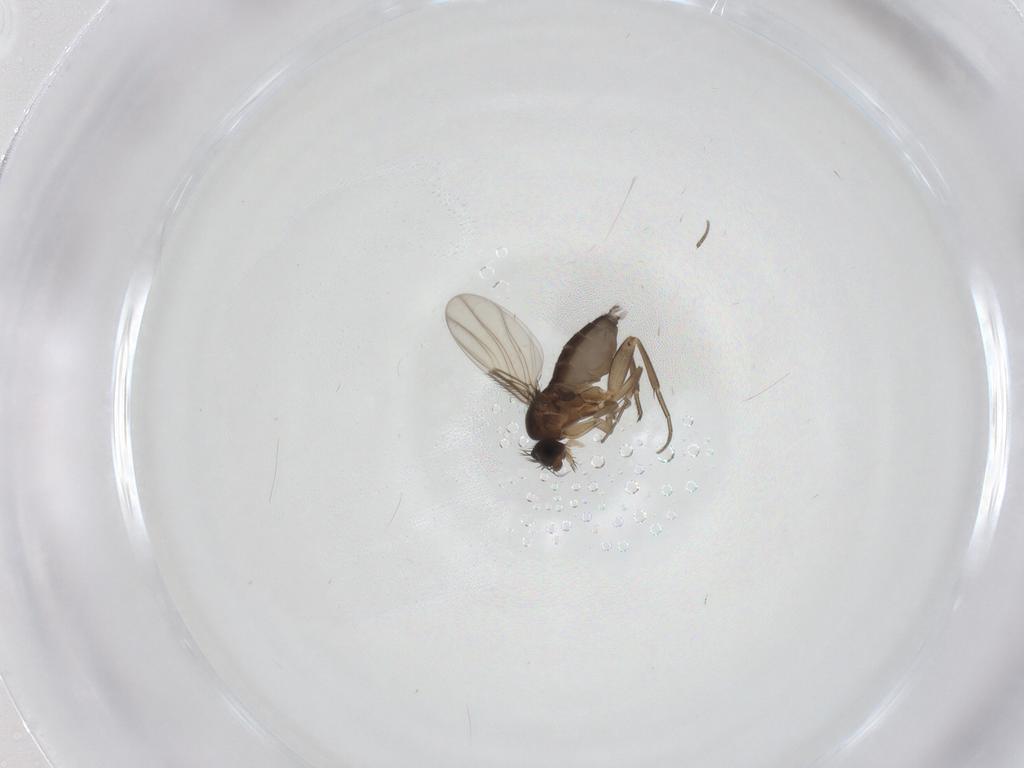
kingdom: Animalia
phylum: Arthropoda
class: Insecta
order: Diptera
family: Phoridae
